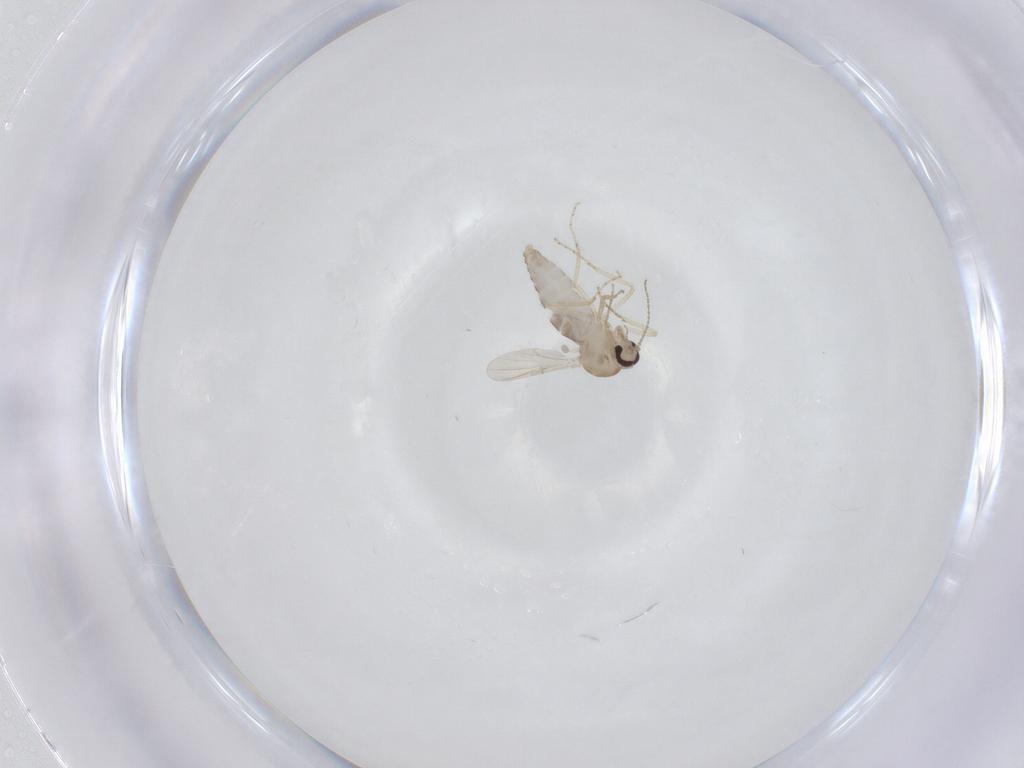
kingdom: Animalia
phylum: Arthropoda
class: Insecta
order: Diptera
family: Ceratopogonidae
